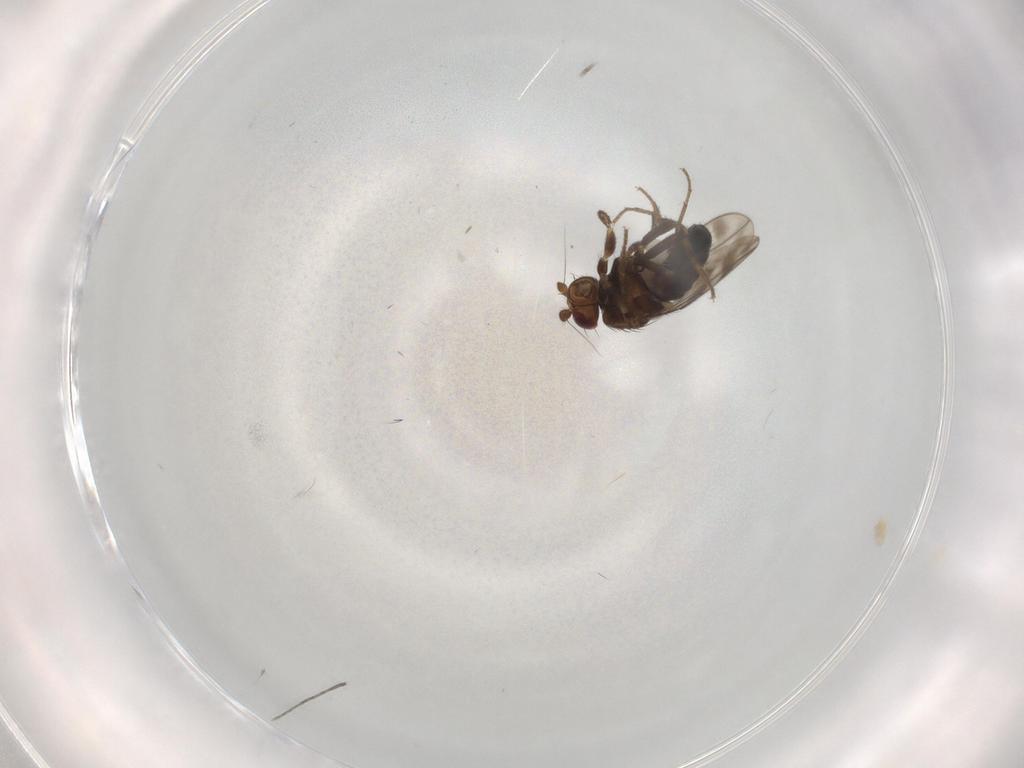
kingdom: Animalia
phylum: Arthropoda
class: Insecta
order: Diptera
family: Sphaeroceridae
